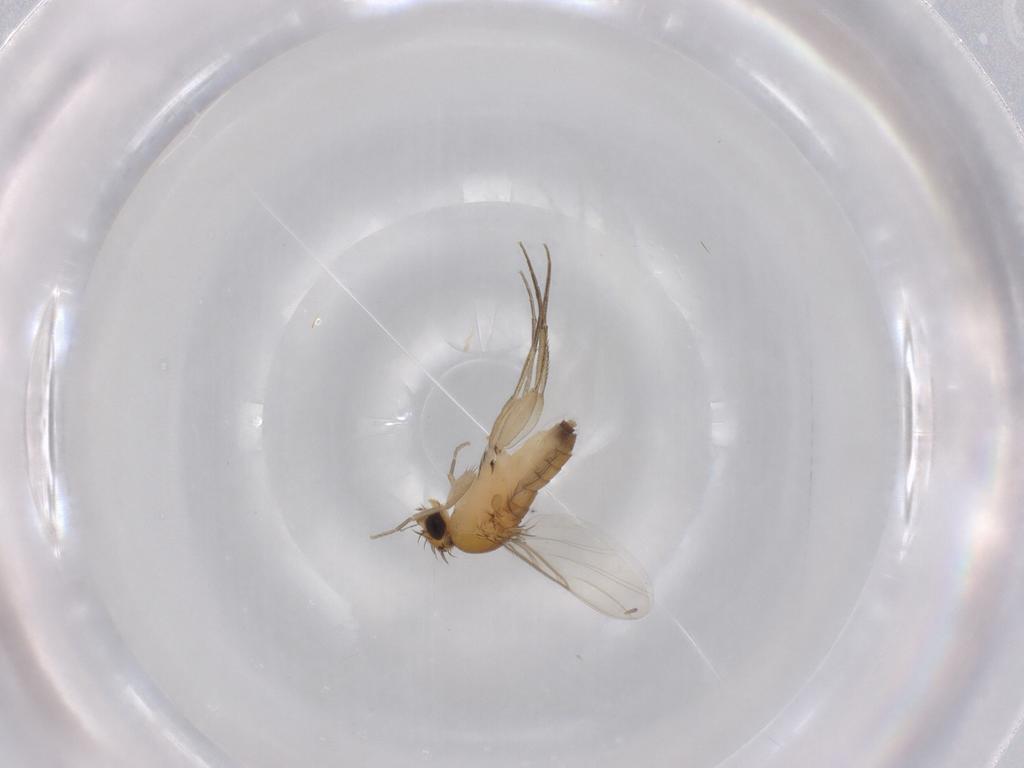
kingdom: Animalia
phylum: Arthropoda
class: Insecta
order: Diptera
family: Phoridae
